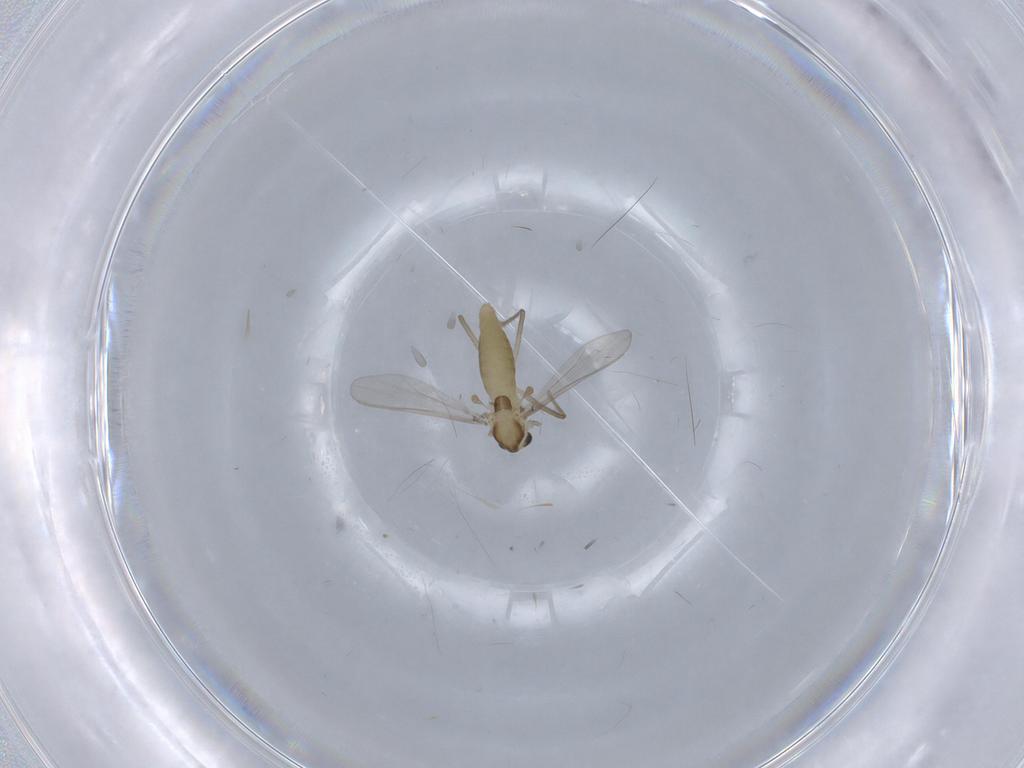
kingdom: Animalia
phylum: Arthropoda
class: Insecta
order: Diptera
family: Chironomidae
